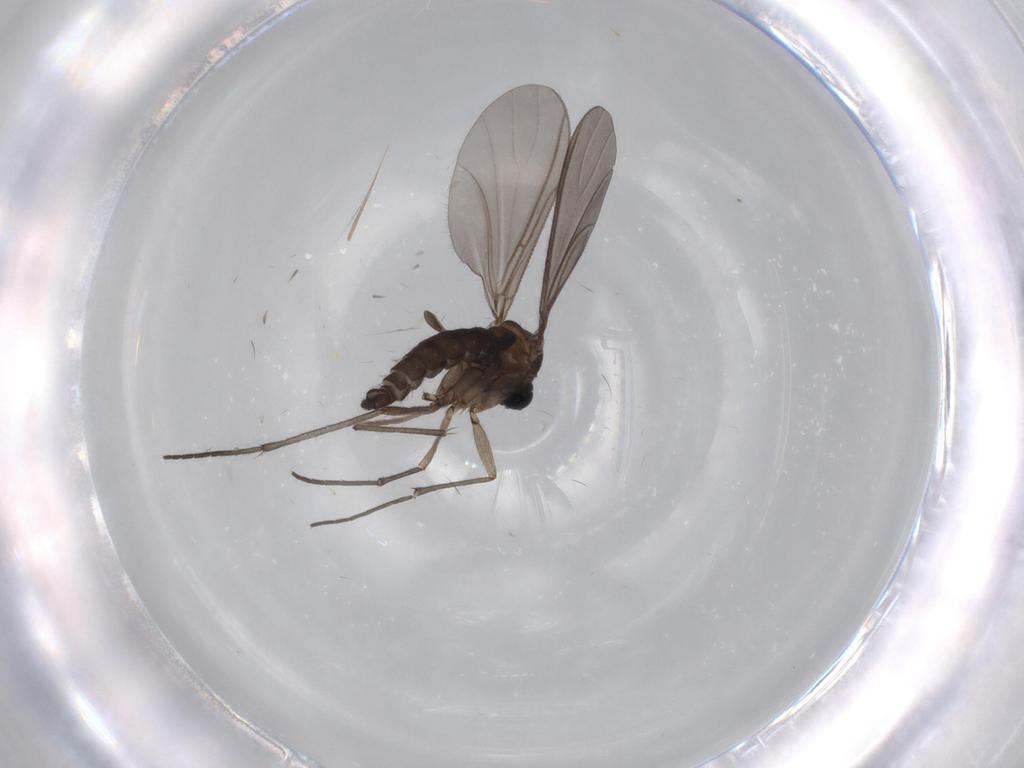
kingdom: Animalia
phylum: Arthropoda
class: Insecta
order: Diptera
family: Sciaridae
